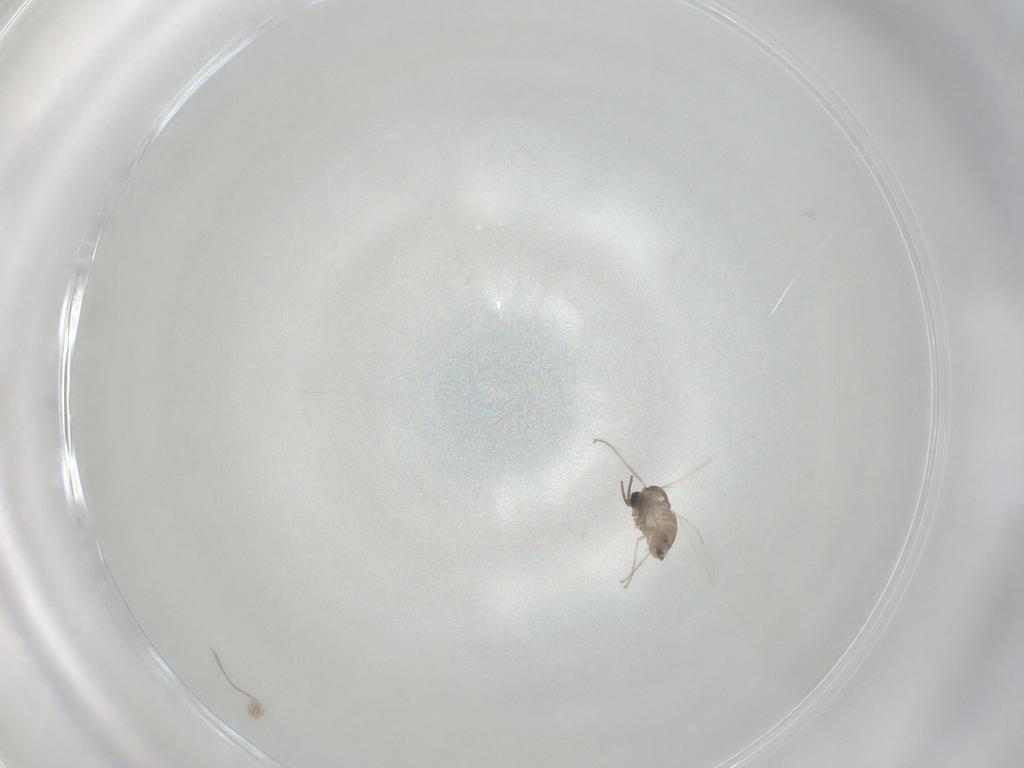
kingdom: Animalia
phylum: Arthropoda
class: Insecta
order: Diptera
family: Cecidomyiidae
